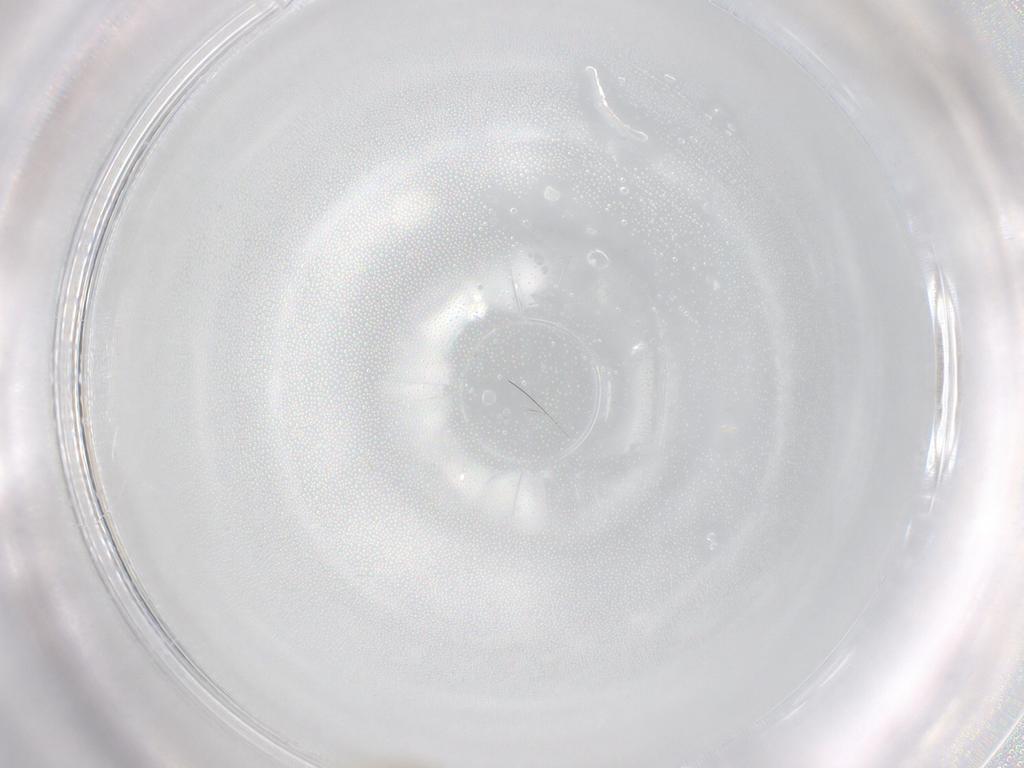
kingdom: Animalia
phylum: Arthropoda
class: Insecta
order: Diptera
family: Cecidomyiidae
